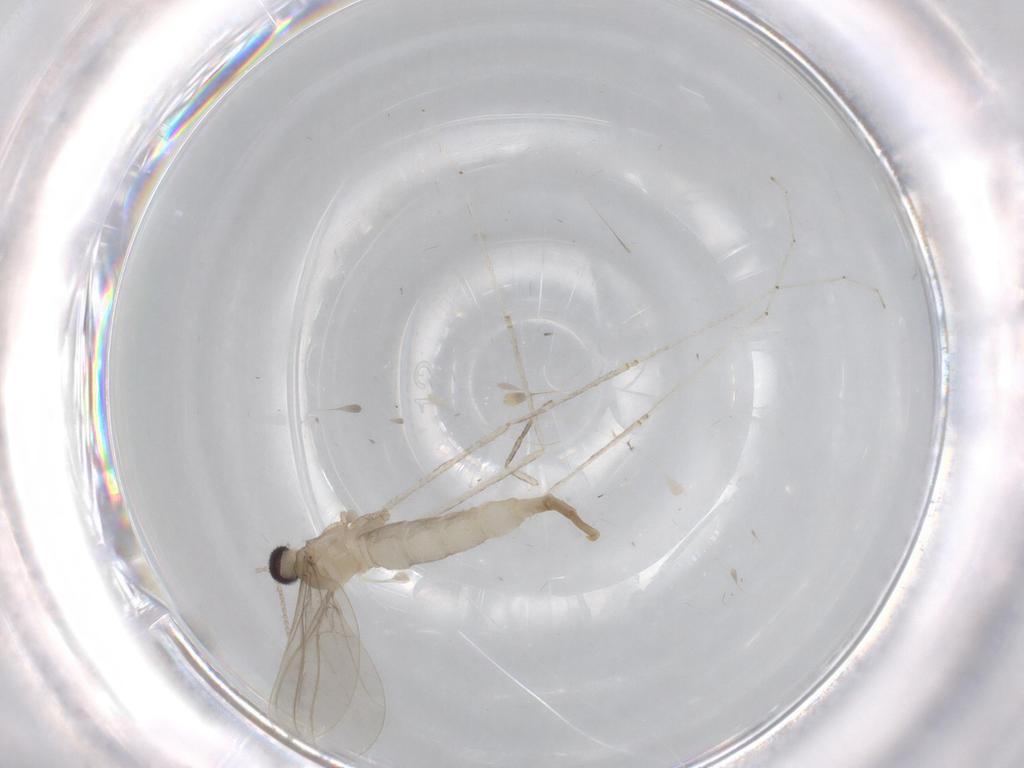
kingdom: Animalia
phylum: Arthropoda
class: Insecta
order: Diptera
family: Cecidomyiidae
